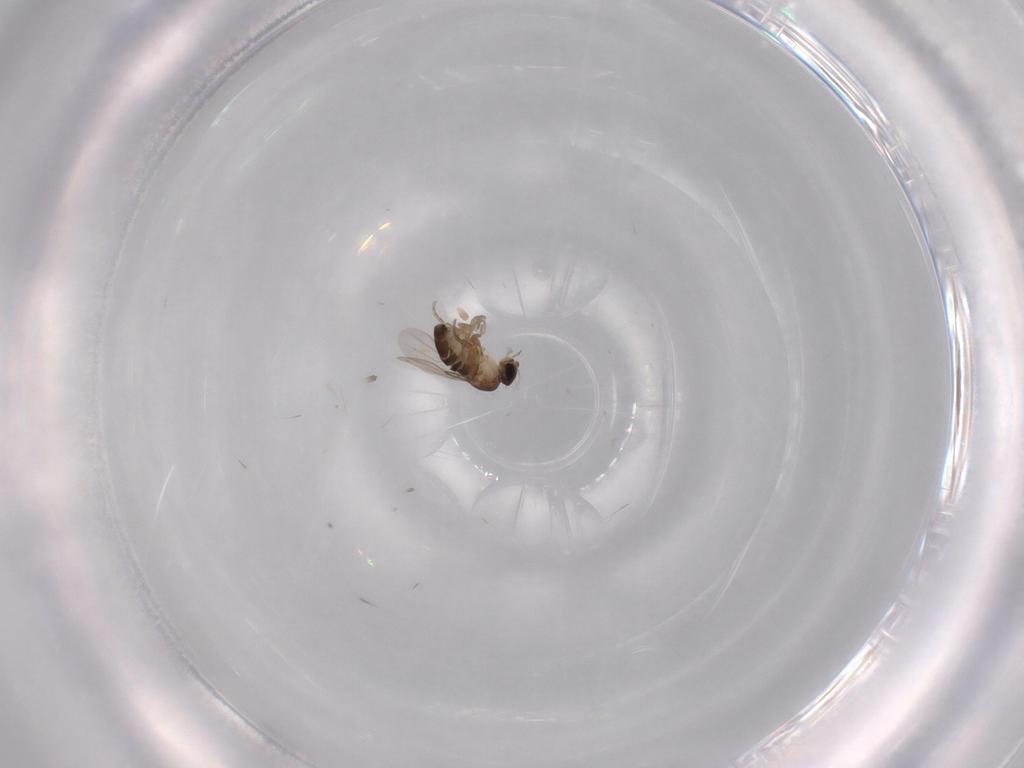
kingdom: Animalia
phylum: Arthropoda
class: Insecta
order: Diptera
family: Phoridae
